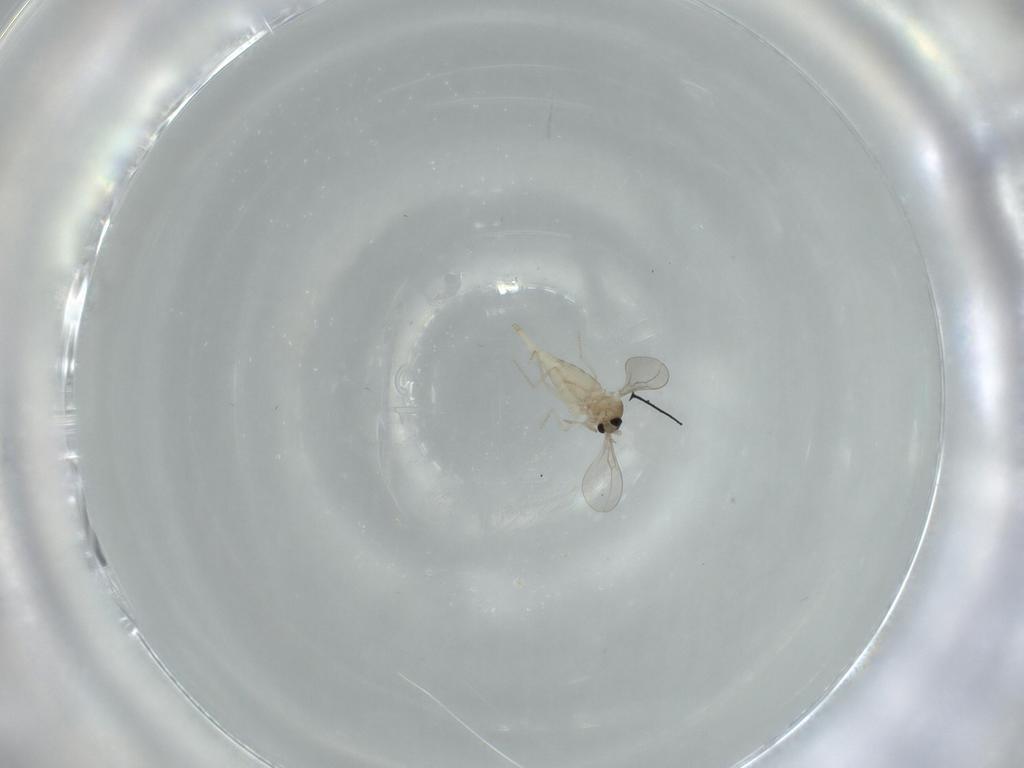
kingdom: Animalia
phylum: Arthropoda
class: Insecta
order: Diptera
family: Cecidomyiidae
